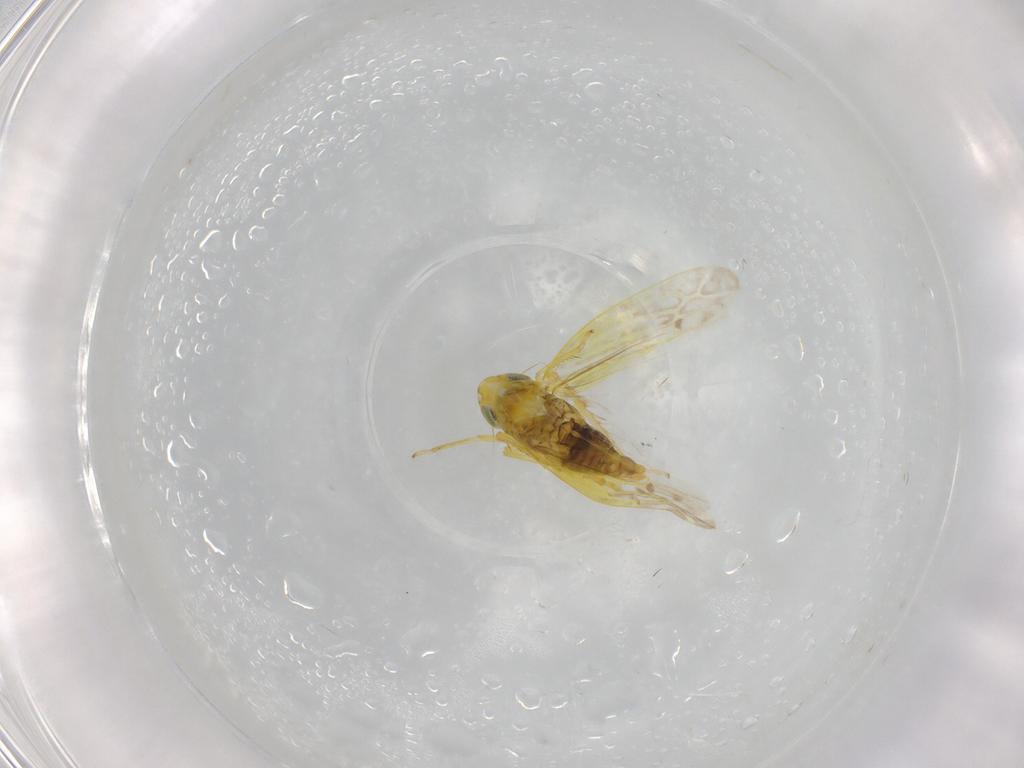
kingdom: Animalia
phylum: Arthropoda
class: Insecta
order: Hemiptera
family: Cicadellidae
